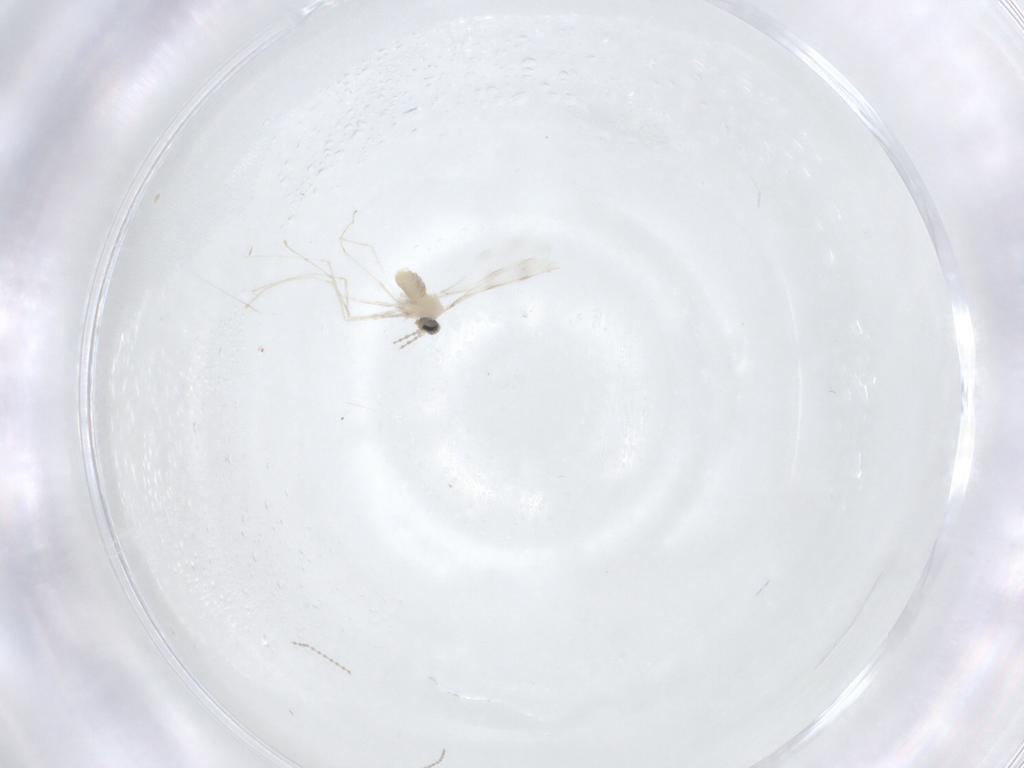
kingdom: Animalia
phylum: Arthropoda
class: Insecta
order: Diptera
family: Cecidomyiidae
